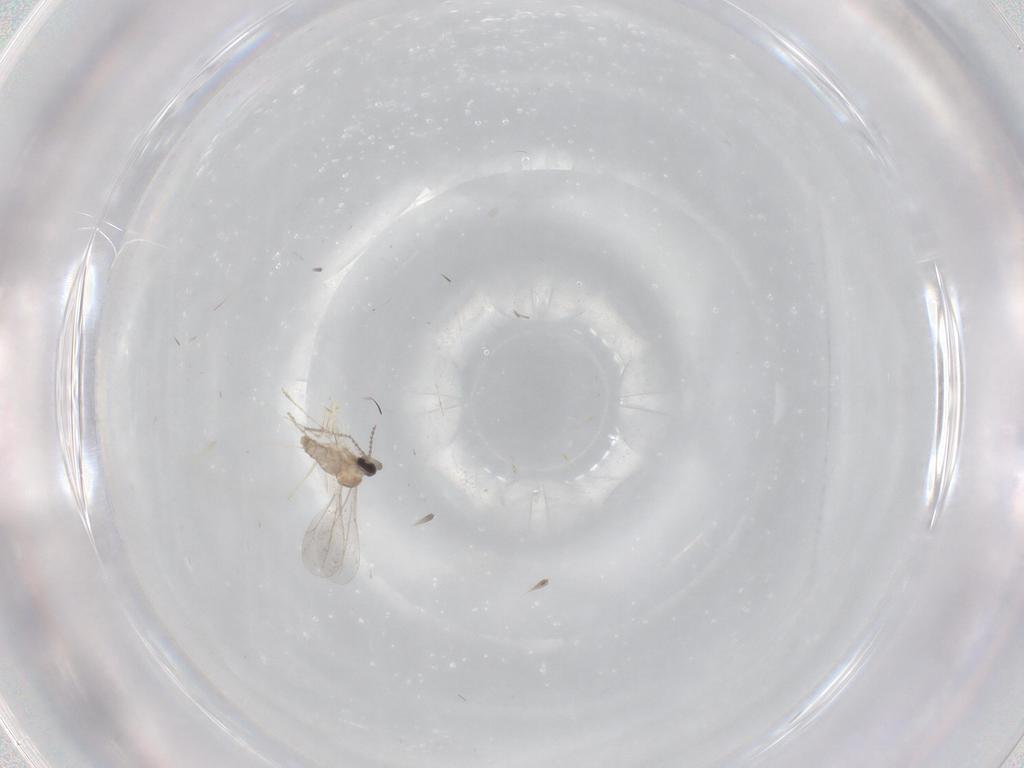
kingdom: Animalia
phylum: Arthropoda
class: Insecta
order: Diptera
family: Cecidomyiidae
